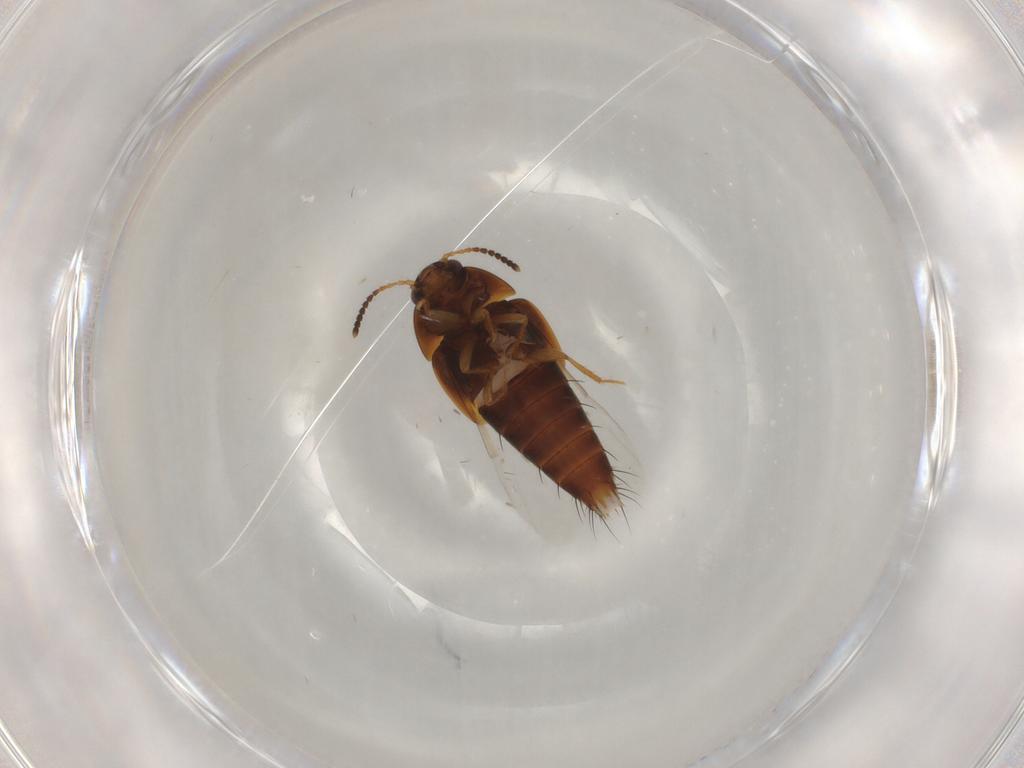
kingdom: Animalia
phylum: Arthropoda
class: Insecta
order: Coleoptera
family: Staphylinidae
